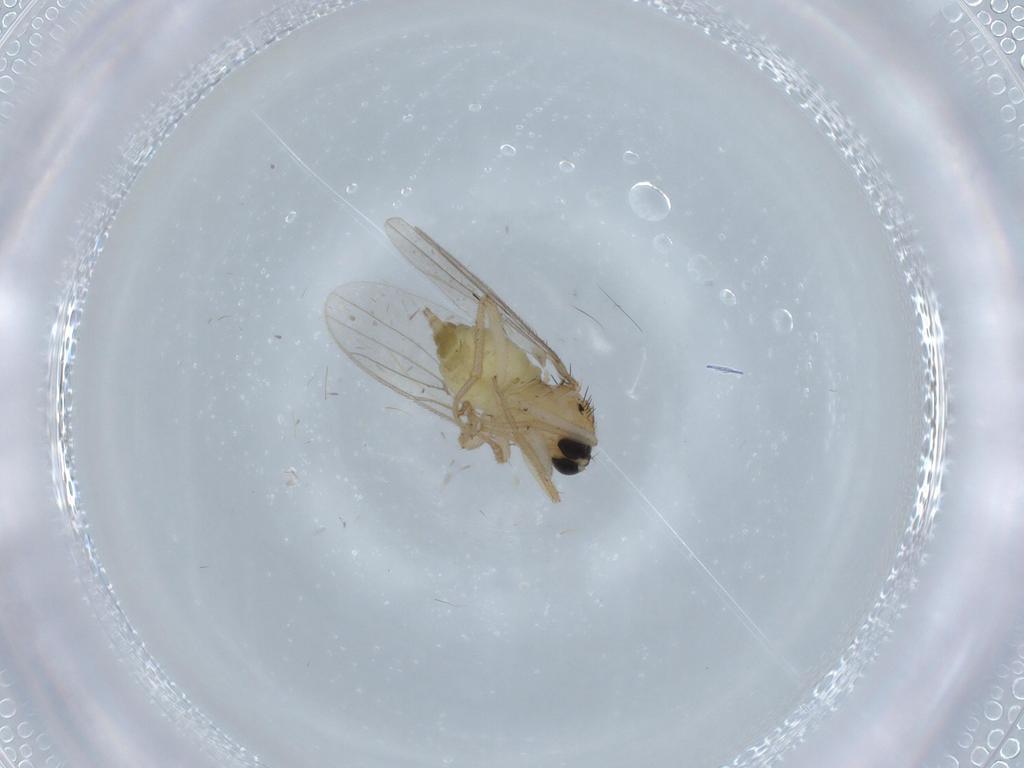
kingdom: Animalia
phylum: Arthropoda
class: Insecta
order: Diptera
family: Hybotidae
